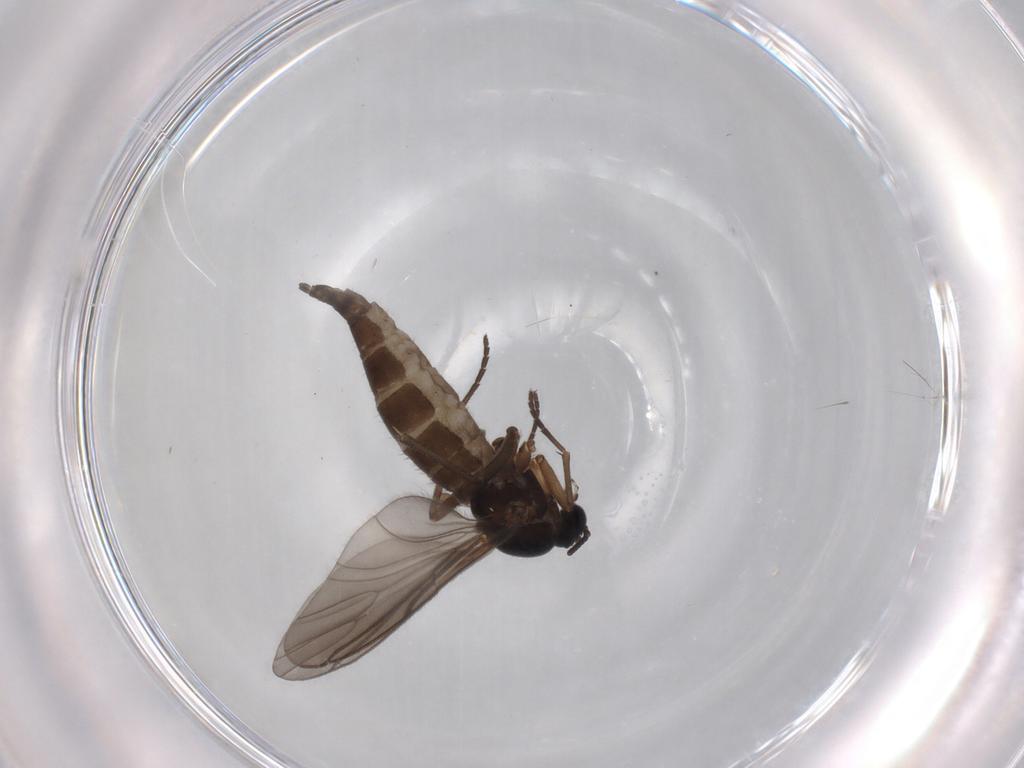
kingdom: Animalia
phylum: Arthropoda
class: Insecta
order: Diptera
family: Sciaridae
